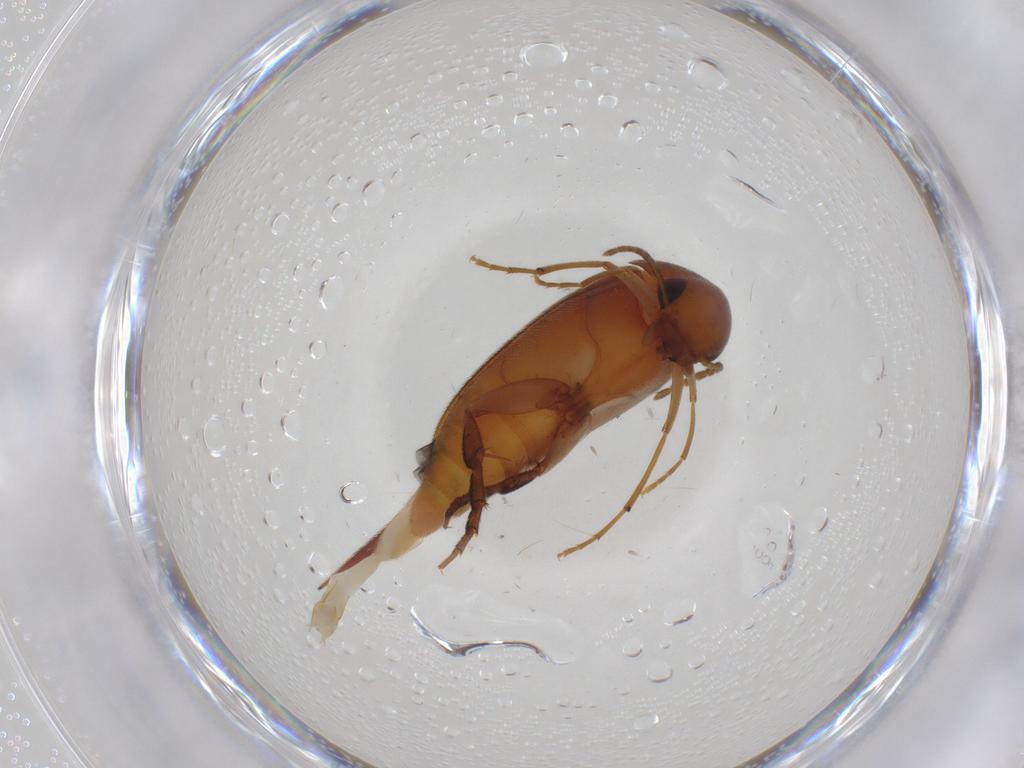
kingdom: Animalia
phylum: Arthropoda
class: Insecta
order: Coleoptera
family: Mordellidae
